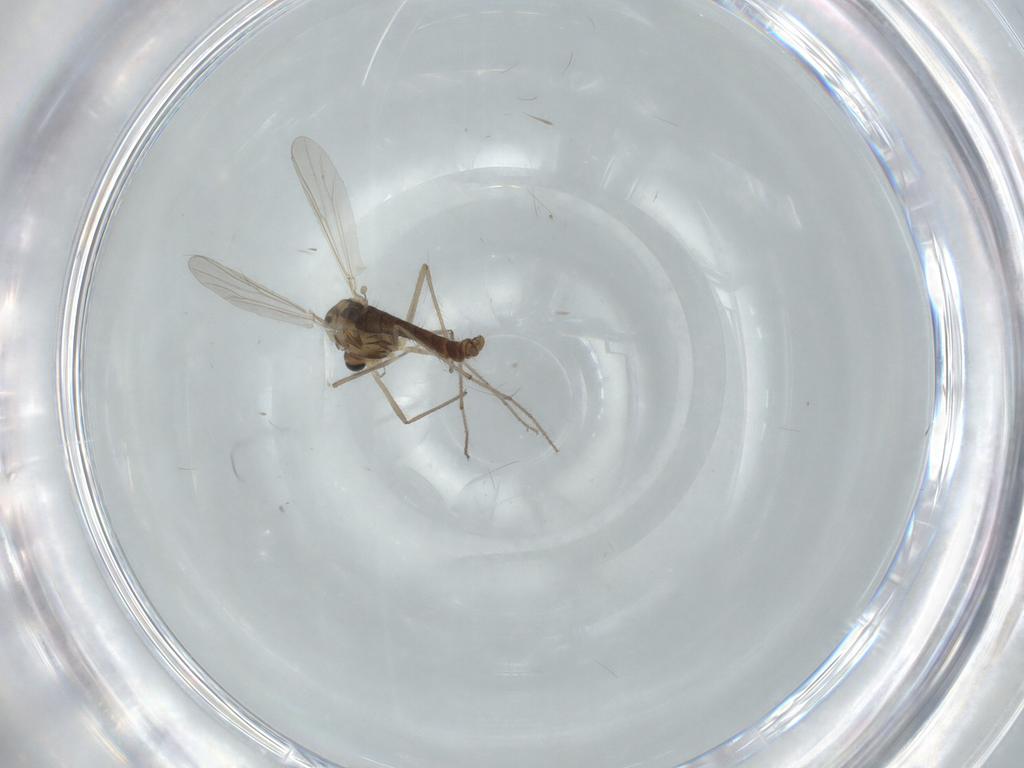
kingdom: Animalia
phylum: Arthropoda
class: Insecta
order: Diptera
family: Chironomidae
